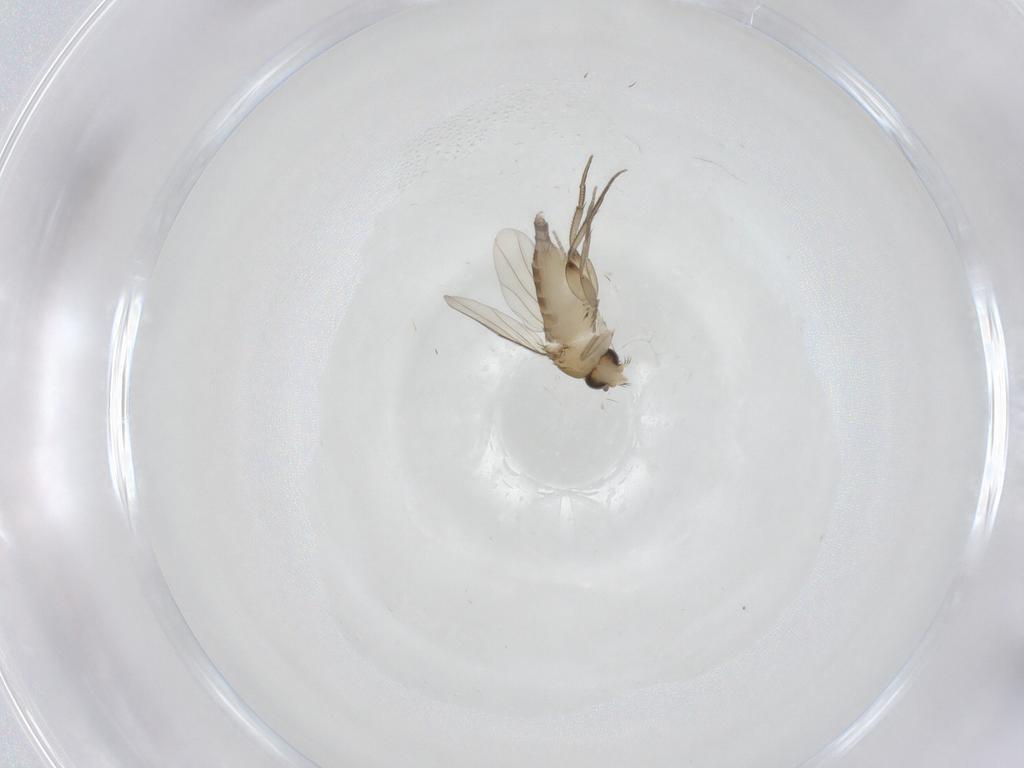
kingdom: Animalia
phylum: Arthropoda
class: Insecta
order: Diptera
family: Phoridae
